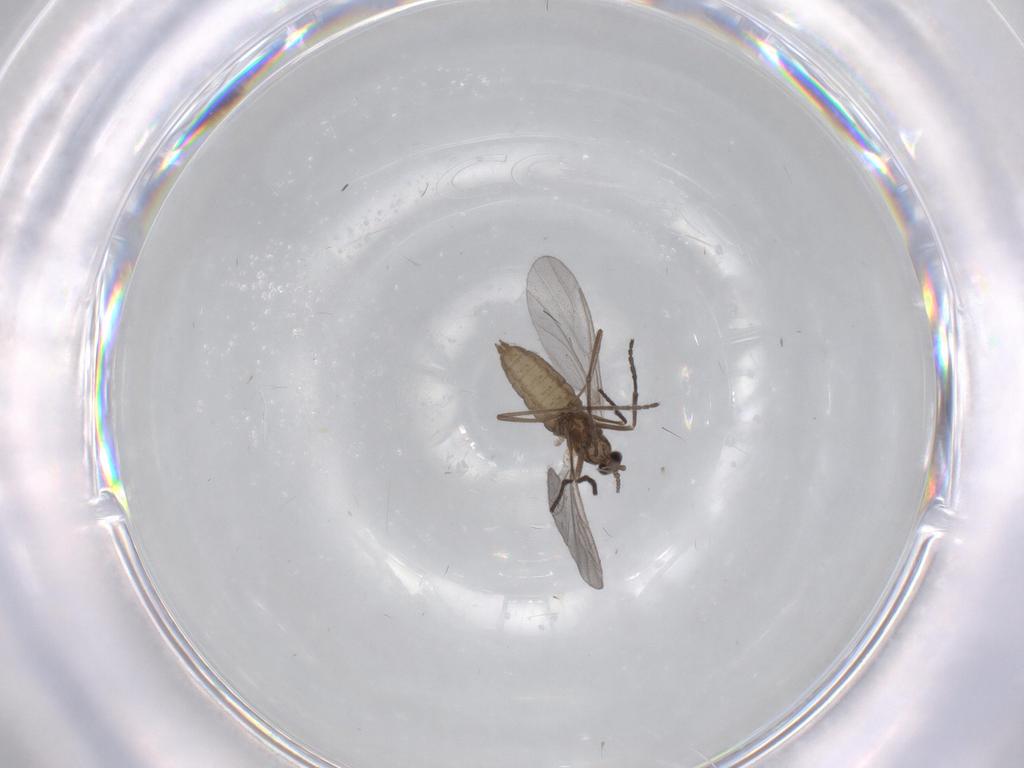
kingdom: Animalia
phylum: Arthropoda
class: Insecta
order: Diptera
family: Cecidomyiidae
